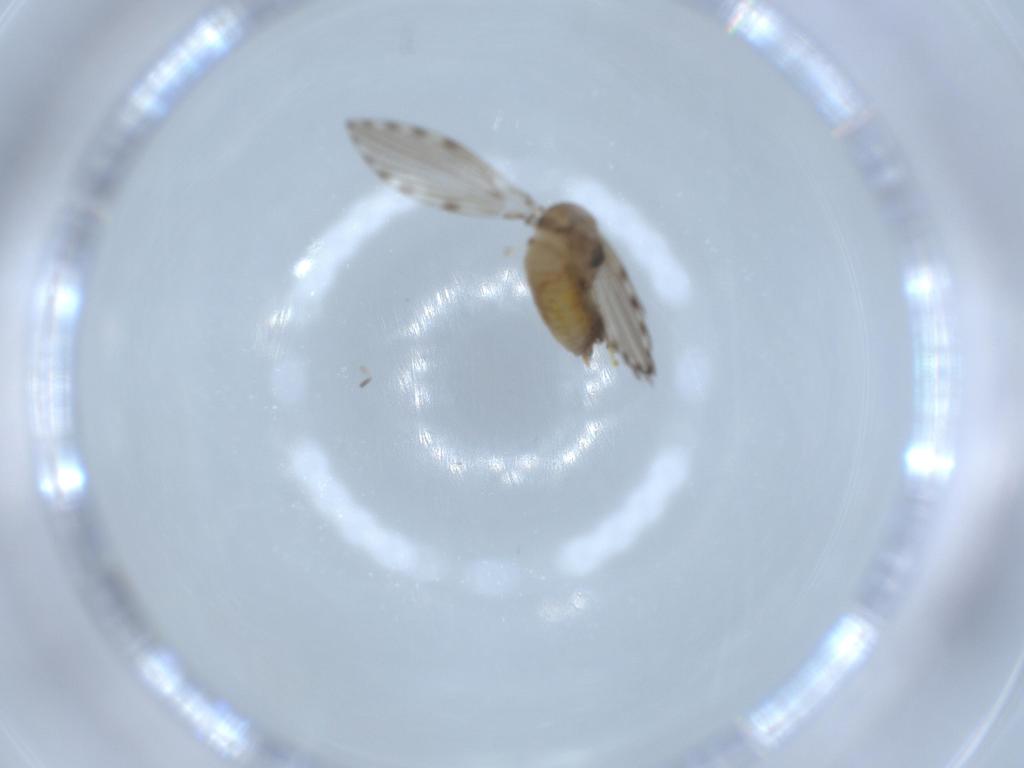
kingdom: Animalia
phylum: Arthropoda
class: Insecta
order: Diptera
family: Psychodidae
